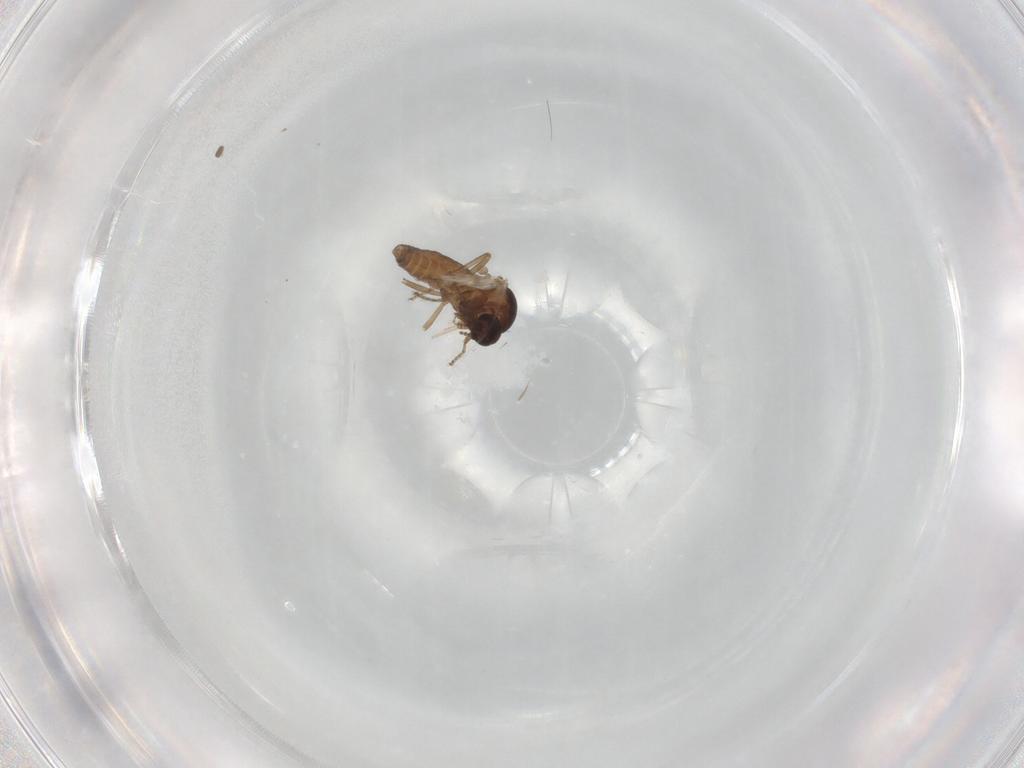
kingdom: Animalia
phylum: Arthropoda
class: Insecta
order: Diptera
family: Ceratopogonidae
